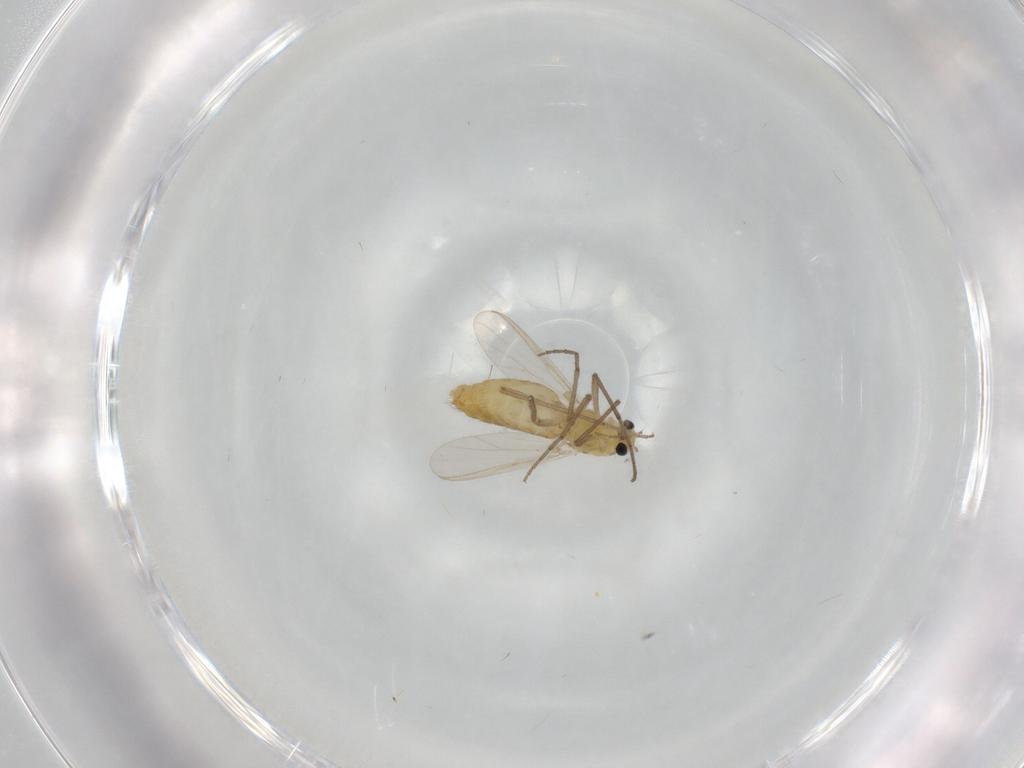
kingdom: Animalia
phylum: Arthropoda
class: Insecta
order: Diptera
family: Chironomidae
